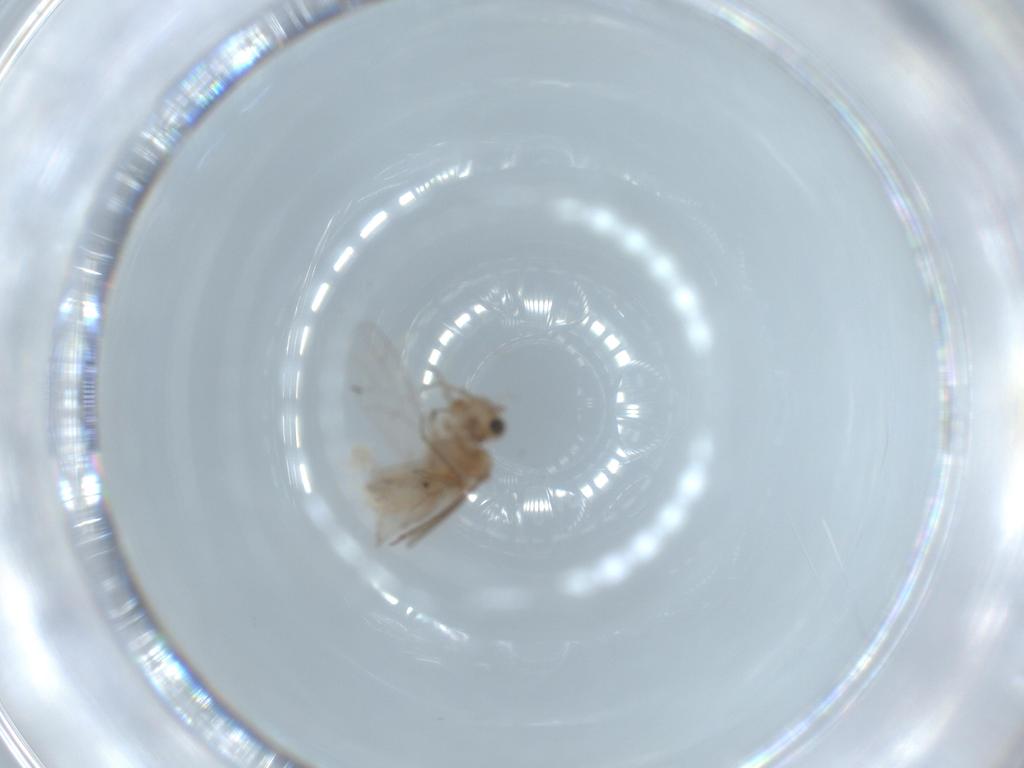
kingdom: Animalia
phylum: Arthropoda
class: Insecta
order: Psocodea
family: Lachesillidae
